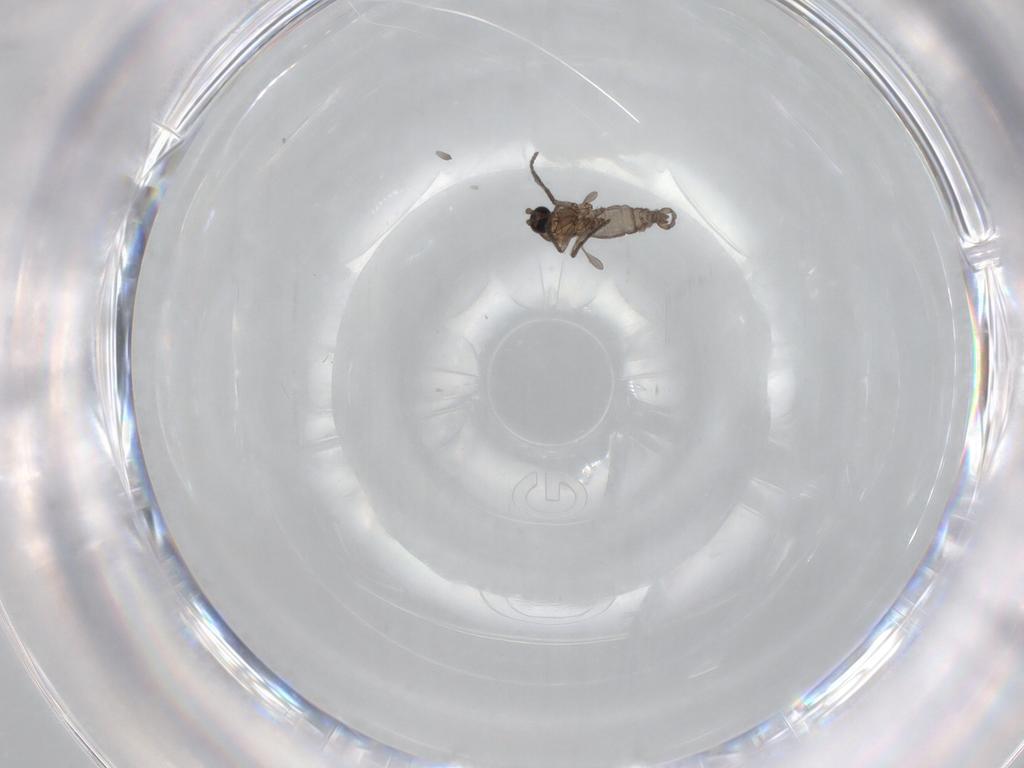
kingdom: Animalia
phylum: Arthropoda
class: Insecta
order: Diptera
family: Sciaridae
